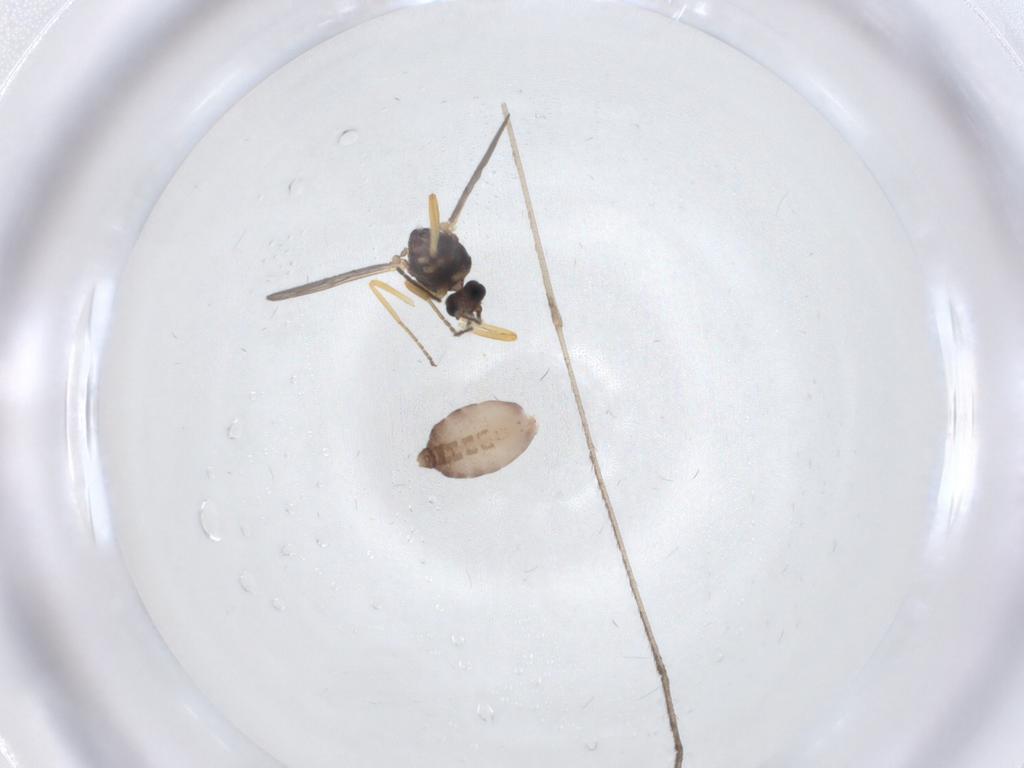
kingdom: Animalia
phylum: Arthropoda
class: Insecta
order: Diptera
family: Ceratopogonidae
